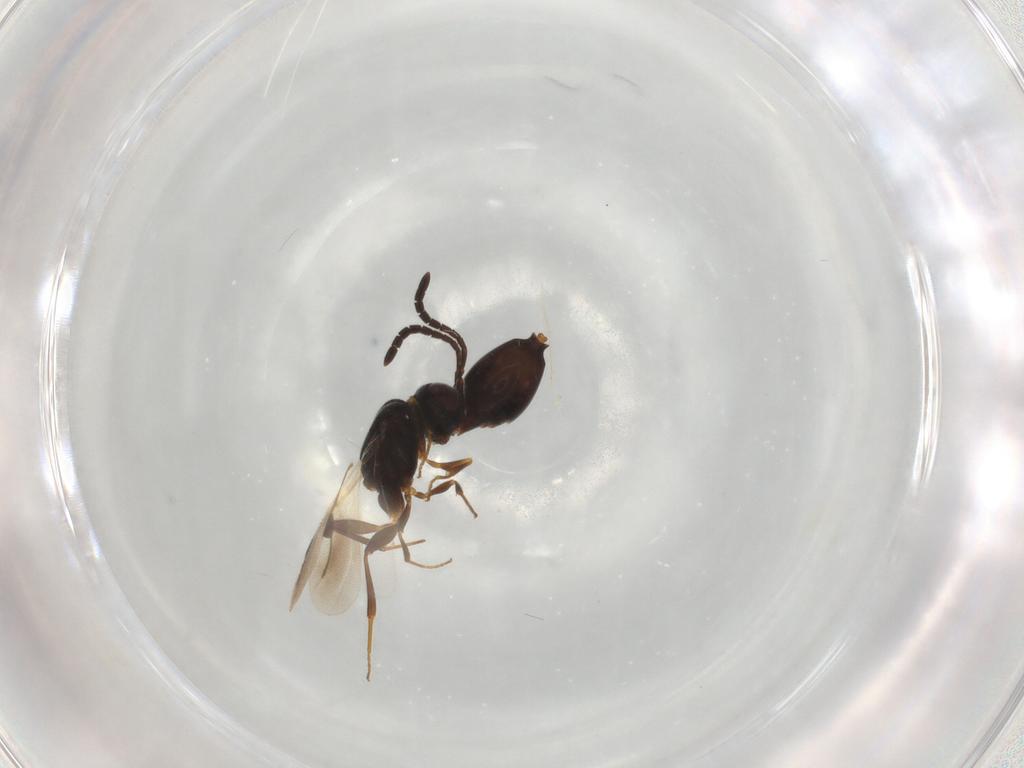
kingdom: Animalia
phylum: Arthropoda
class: Insecta
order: Hymenoptera
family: Megaspilidae
